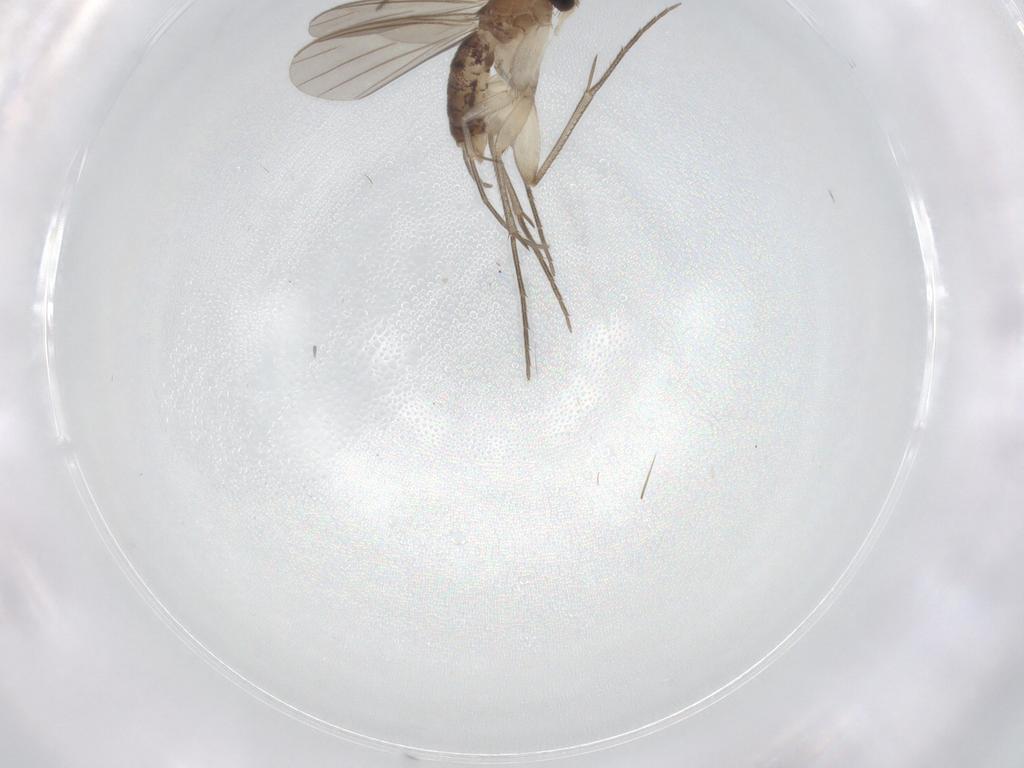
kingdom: Animalia
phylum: Arthropoda
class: Insecta
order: Diptera
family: Mycetophilidae
